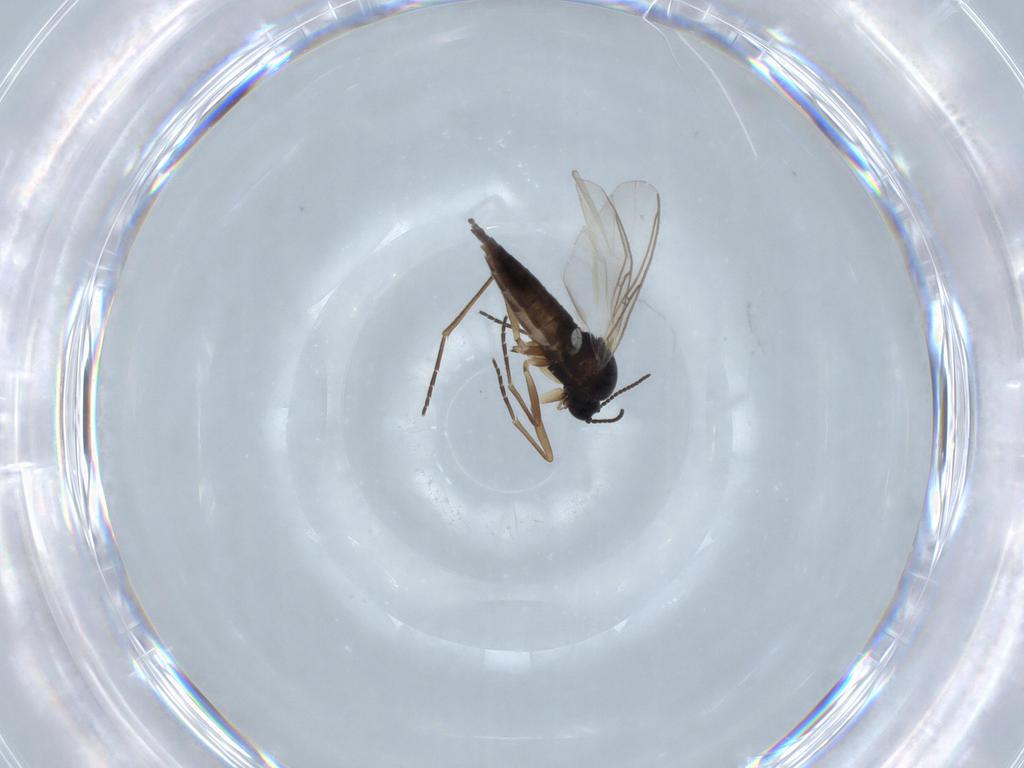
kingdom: Animalia
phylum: Arthropoda
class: Insecta
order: Diptera
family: Sciaridae
